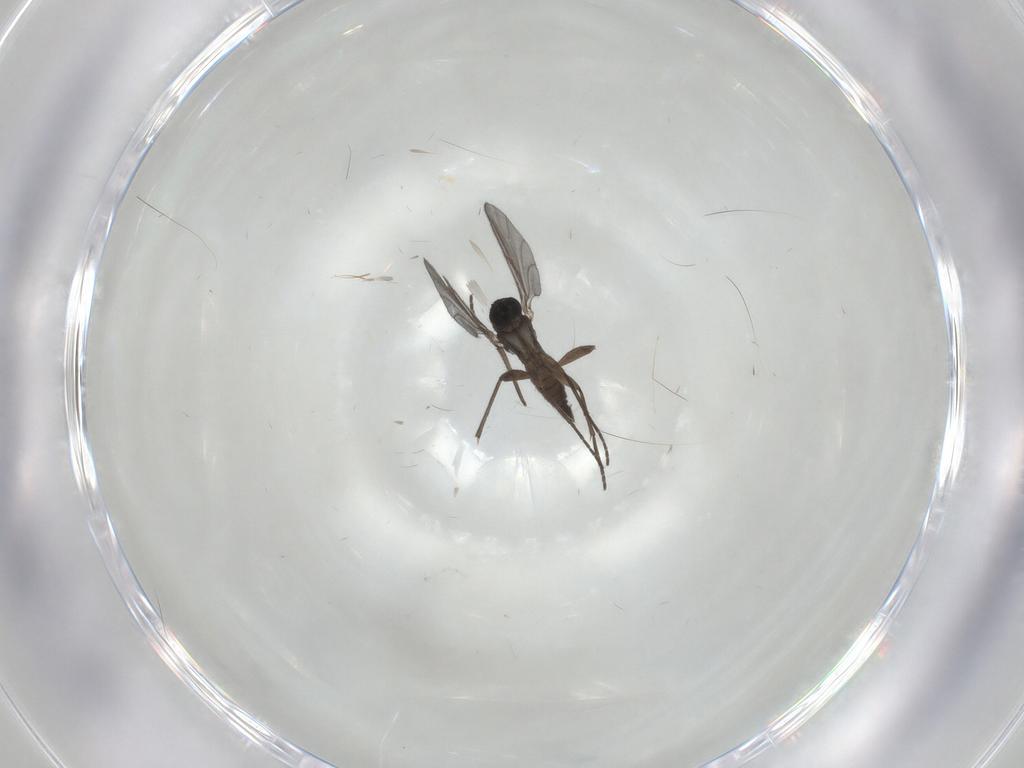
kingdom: Animalia
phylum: Arthropoda
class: Insecta
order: Diptera
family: Sciaridae
